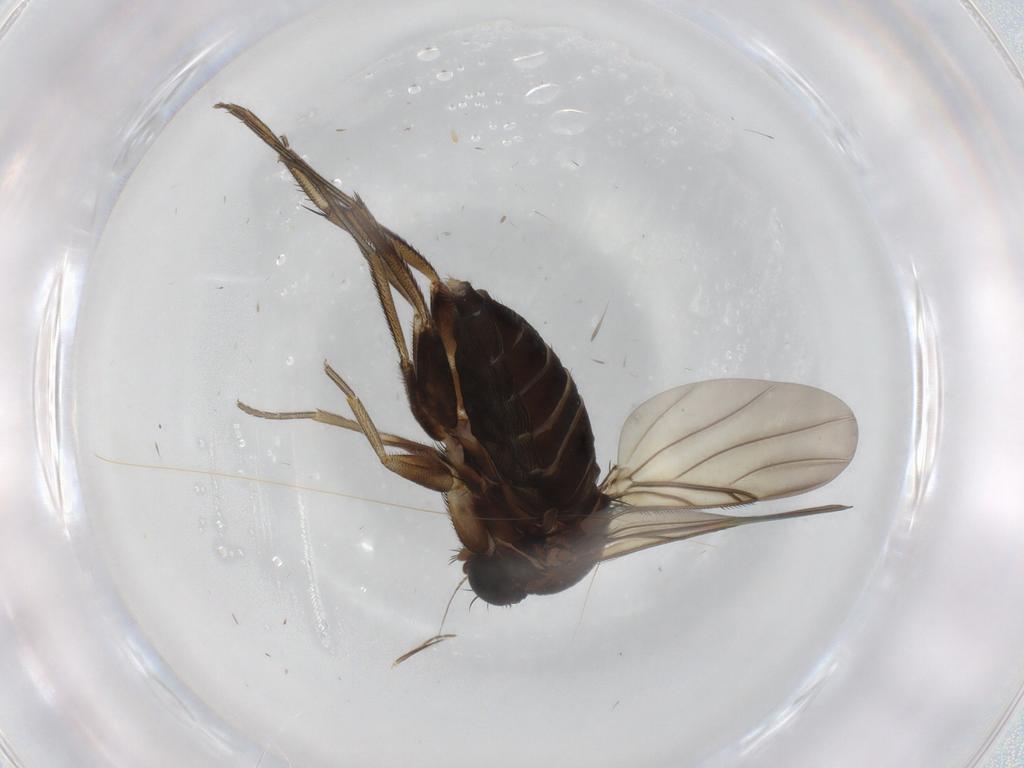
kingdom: Animalia
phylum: Arthropoda
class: Insecta
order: Diptera
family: Phoridae
